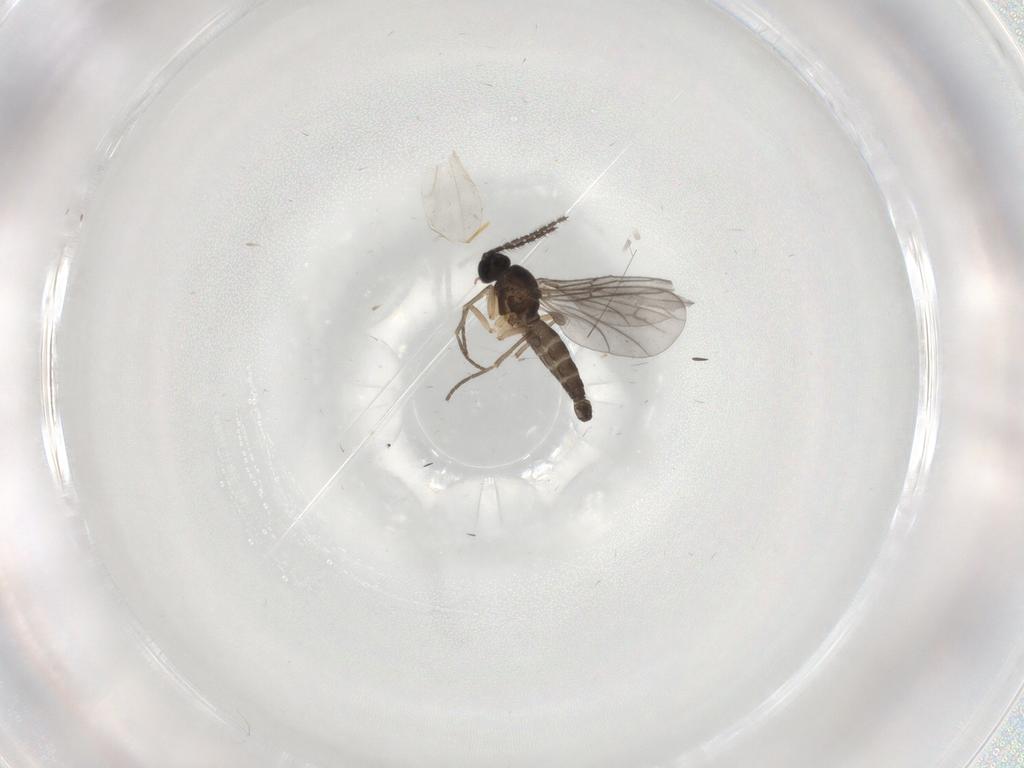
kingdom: Animalia
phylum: Arthropoda
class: Insecta
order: Diptera
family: Sciaridae
